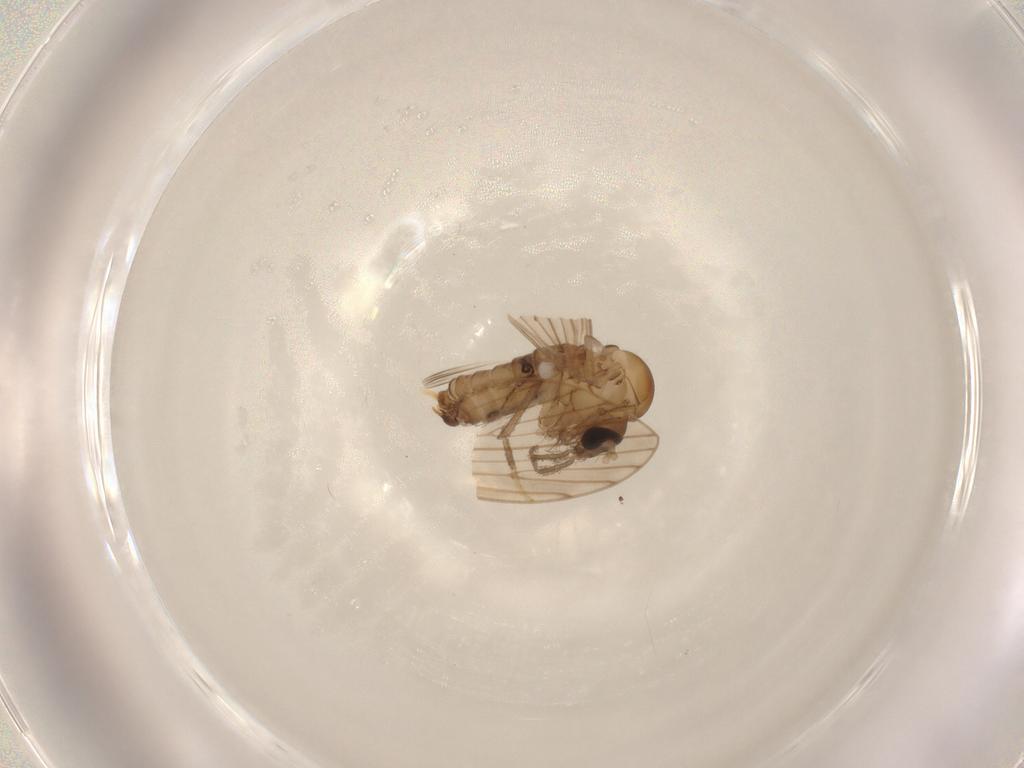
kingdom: Animalia
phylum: Arthropoda
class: Insecta
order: Diptera
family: Psychodidae
